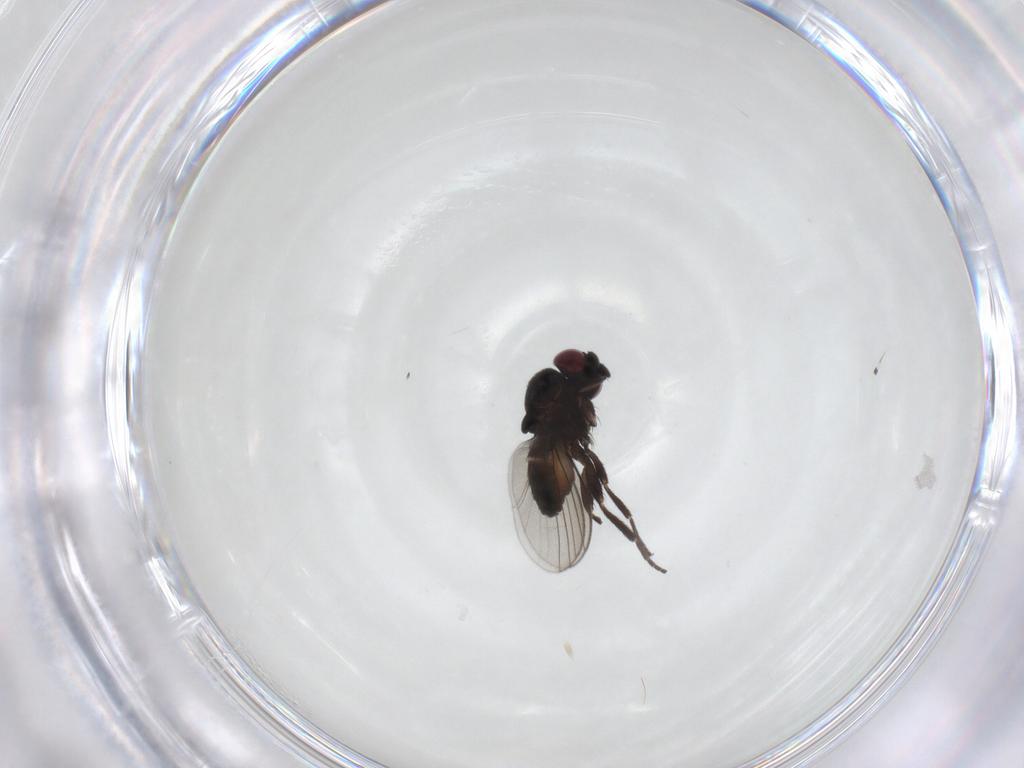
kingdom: Animalia
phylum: Arthropoda
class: Insecta
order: Diptera
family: Milichiidae
